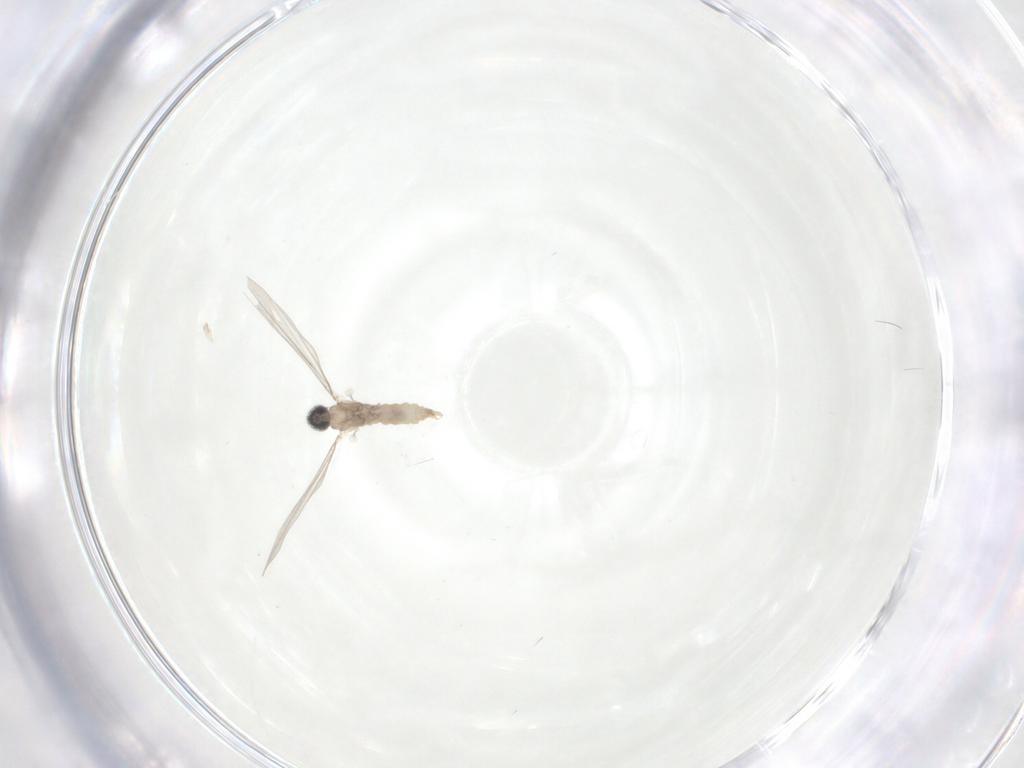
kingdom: Animalia
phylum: Arthropoda
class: Insecta
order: Diptera
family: Cecidomyiidae
